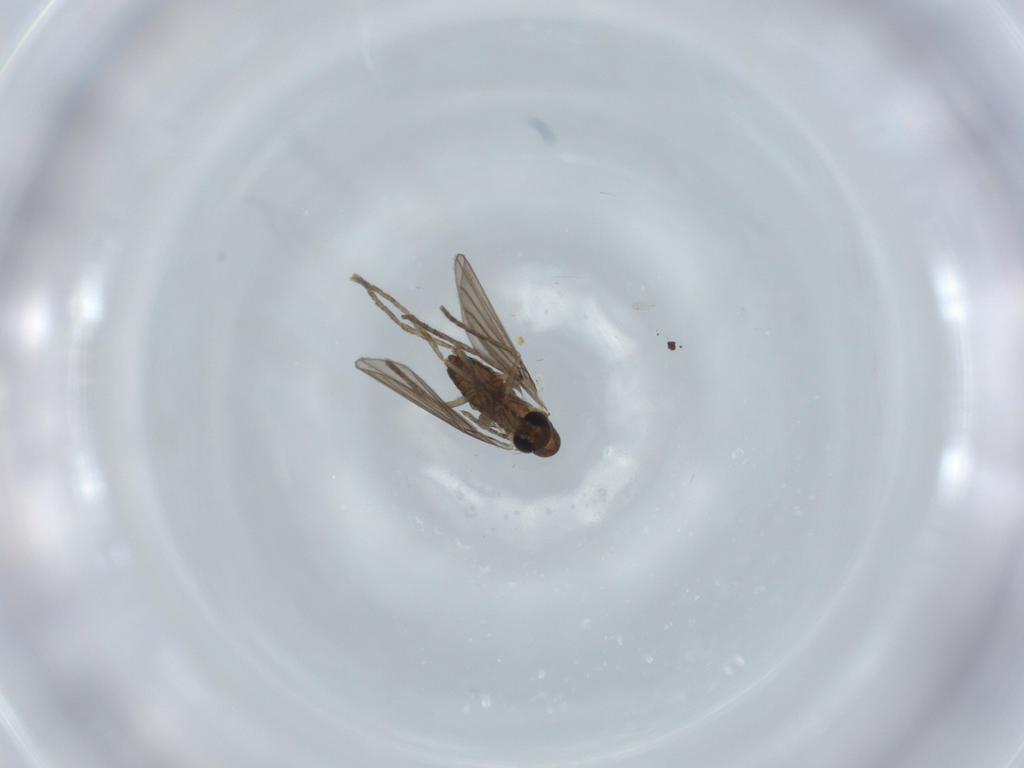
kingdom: Animalia
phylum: Arthropoda
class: Insecta
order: Diptera
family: Psychodidae
